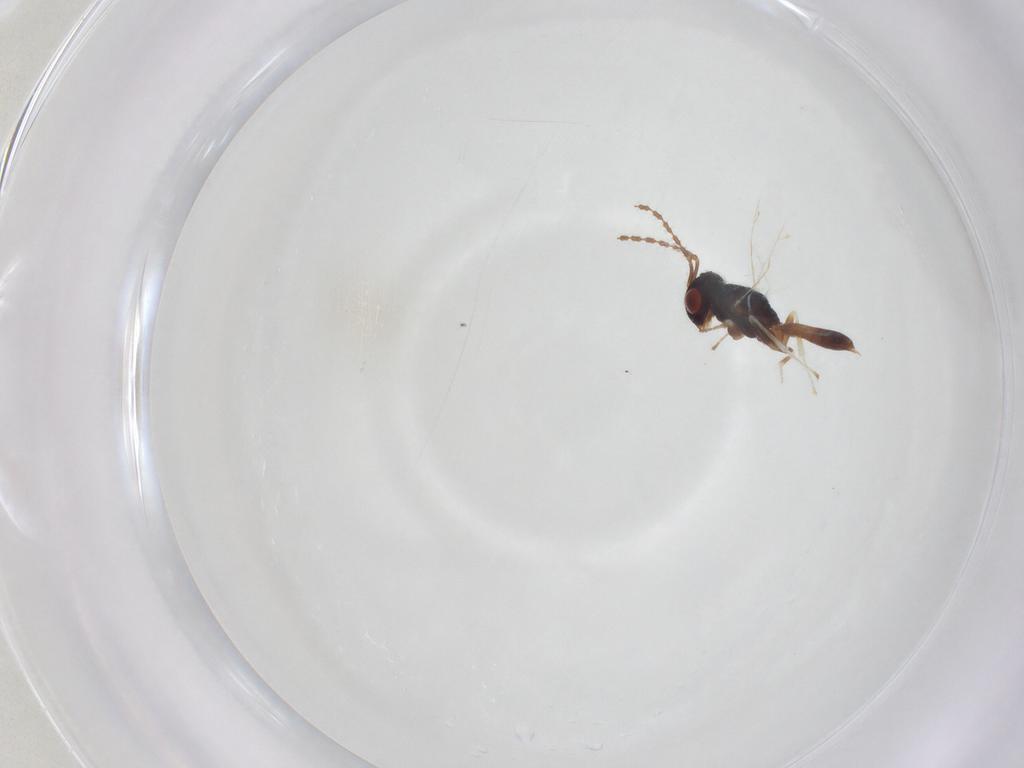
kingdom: Animalia
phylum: Arthropoda
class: Insecta
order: Hymenoptera
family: Pteromalidae
